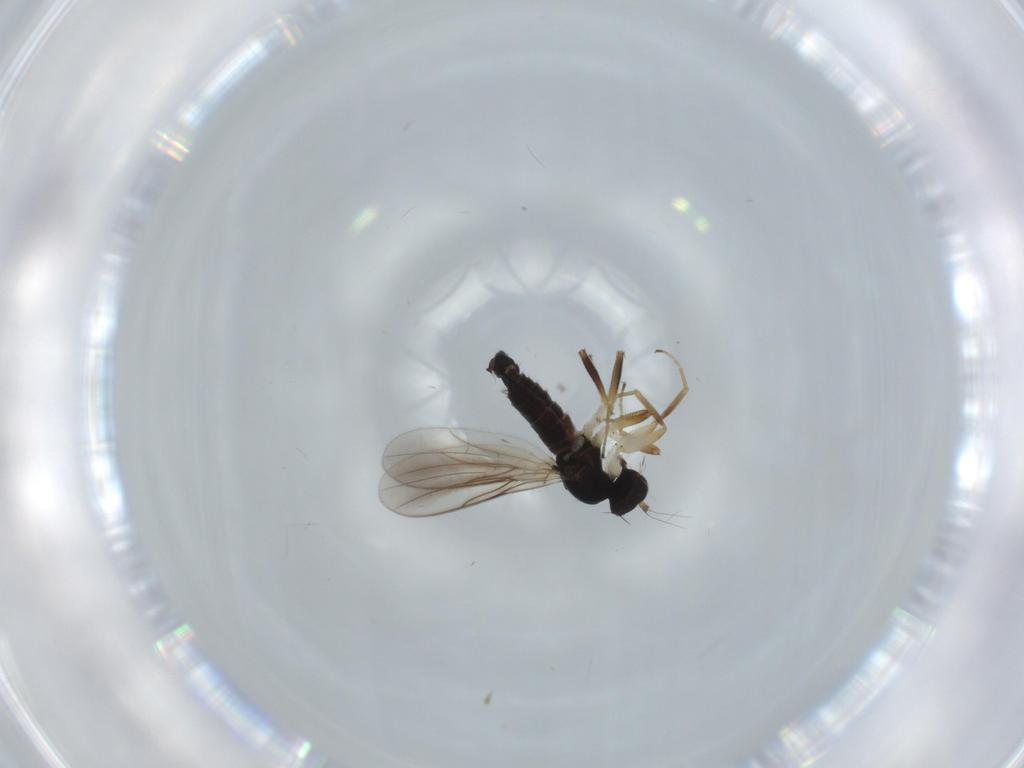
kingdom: Animalia
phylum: Arthropoda
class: Insecta
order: Diptera
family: Hybotidae
